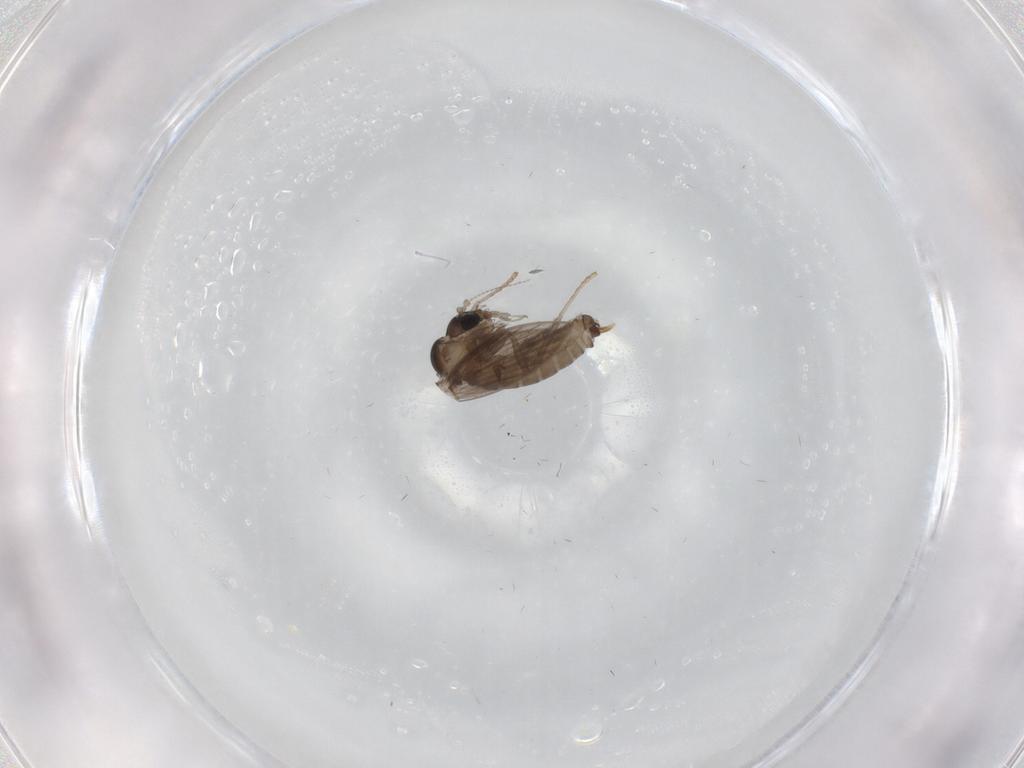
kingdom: Animalia
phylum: Arthropoda
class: Insecta
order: Diptera
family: Psychodidae
